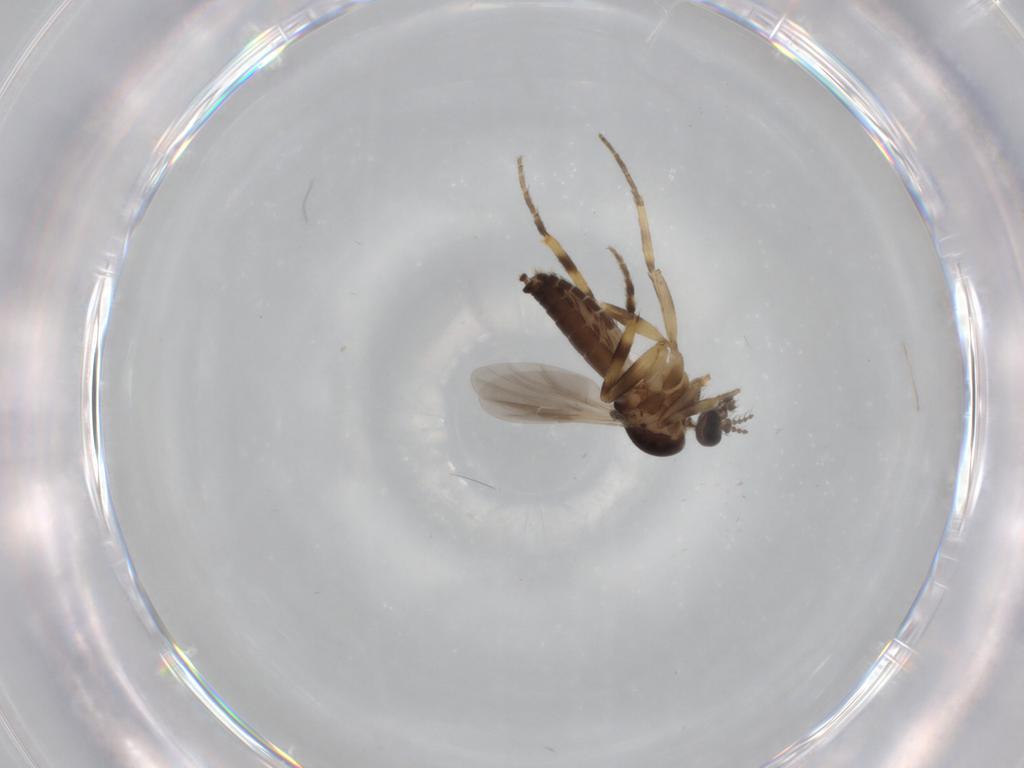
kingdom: Animalia
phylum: Arthropoda
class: Insecta
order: Diptera
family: Ceratopogonidae
